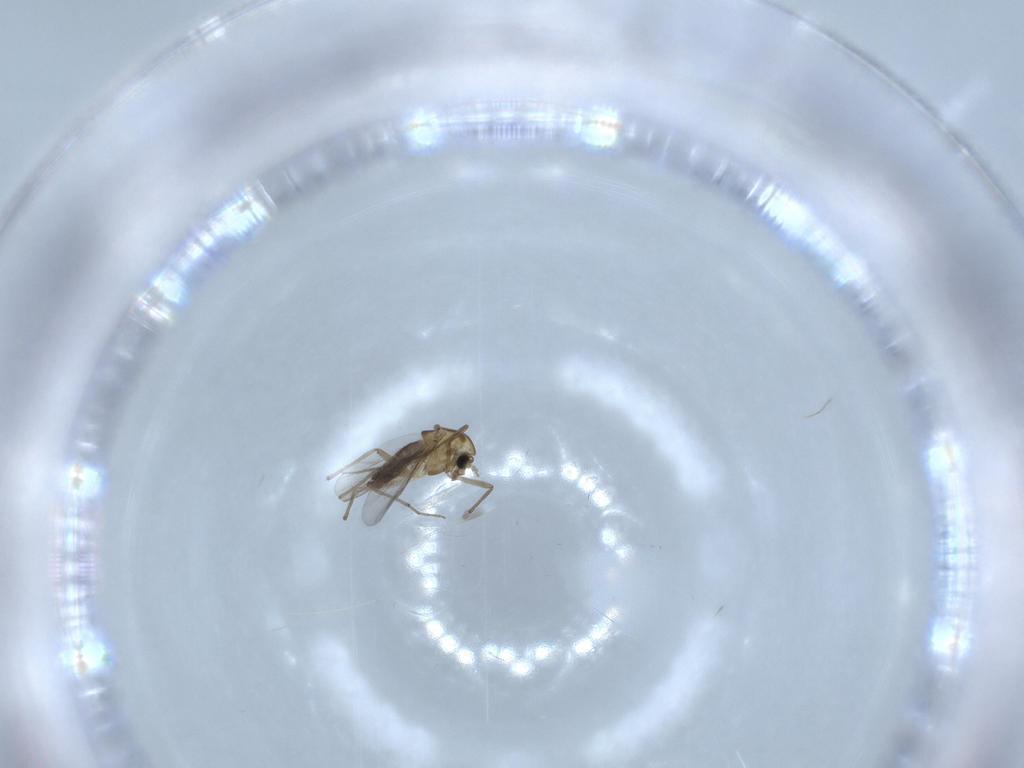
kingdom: Animalia
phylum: Arthropoda
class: Insecta
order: Diptera
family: Chironomidae
